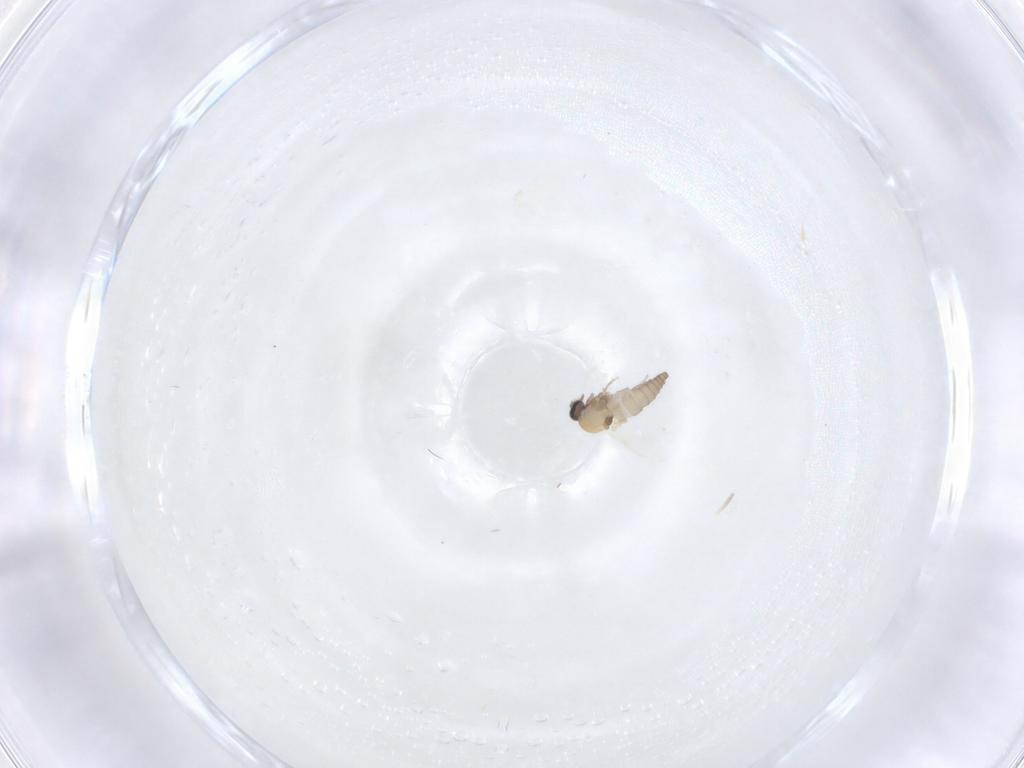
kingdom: Animalia
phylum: Arthropoda
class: Insecta
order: Diptera
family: Ceratopogonidae
